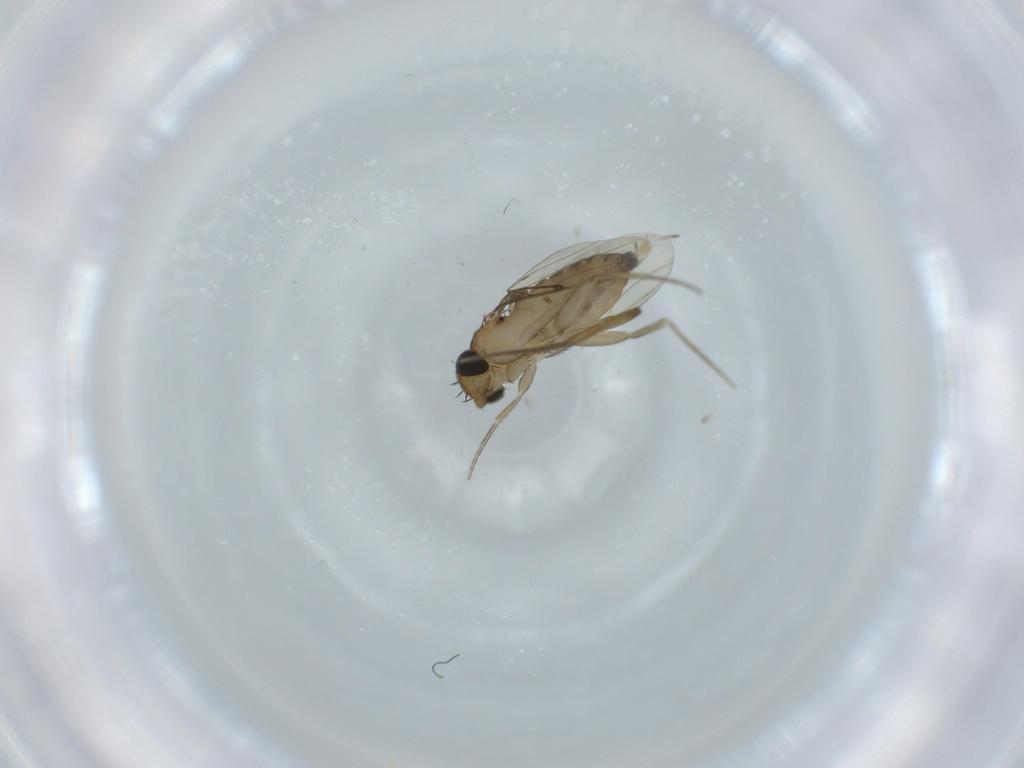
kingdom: Animalia
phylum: Arthropoda
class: Insecta
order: Diptera
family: Phoridae
